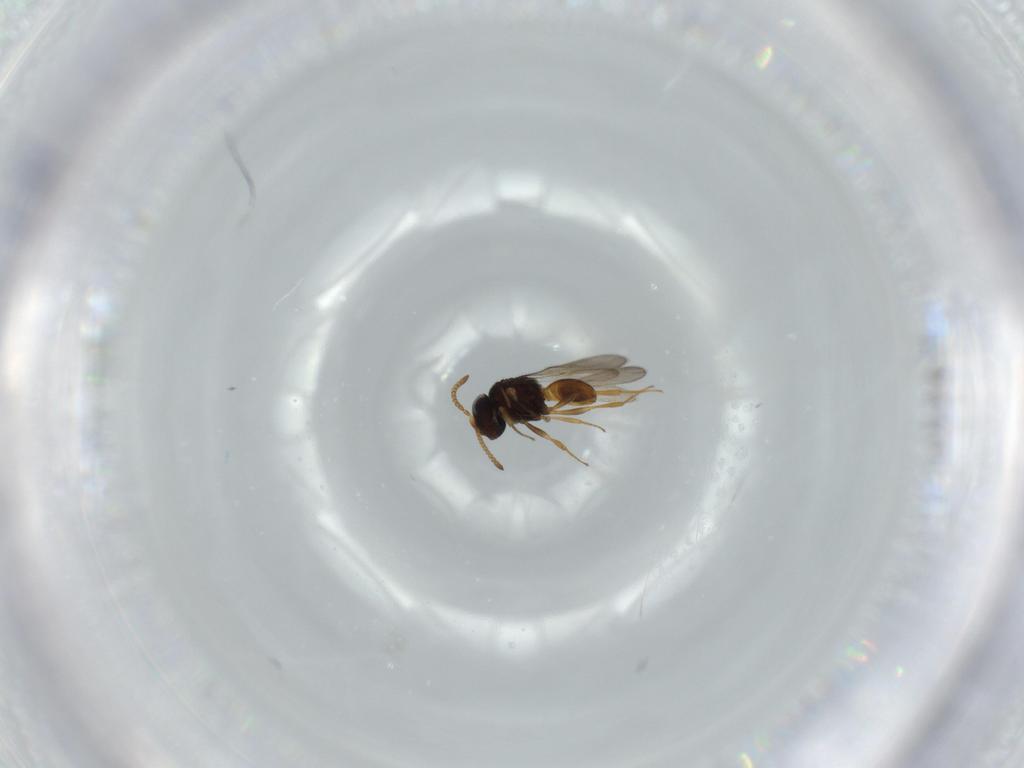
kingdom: Animalia
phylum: Arthropoda
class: Insecta
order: Hymenoptera
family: Scelionidae
